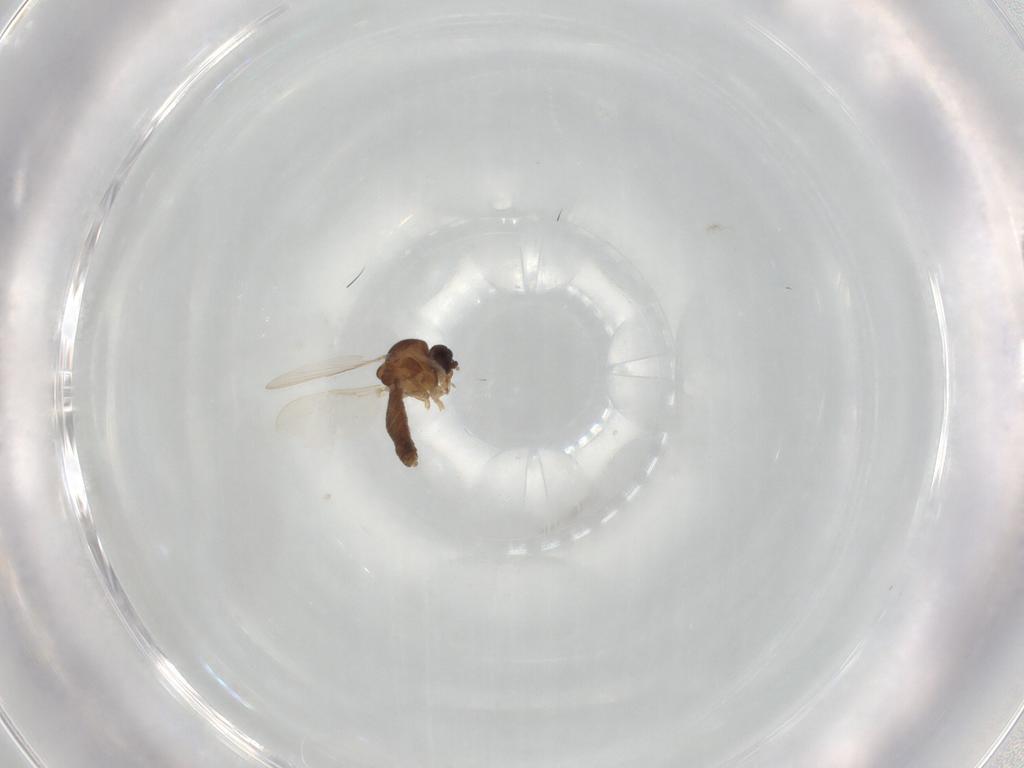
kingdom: Animalia
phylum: Arthropoda
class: Insecta
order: Diptera
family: Ceratopogonidae
